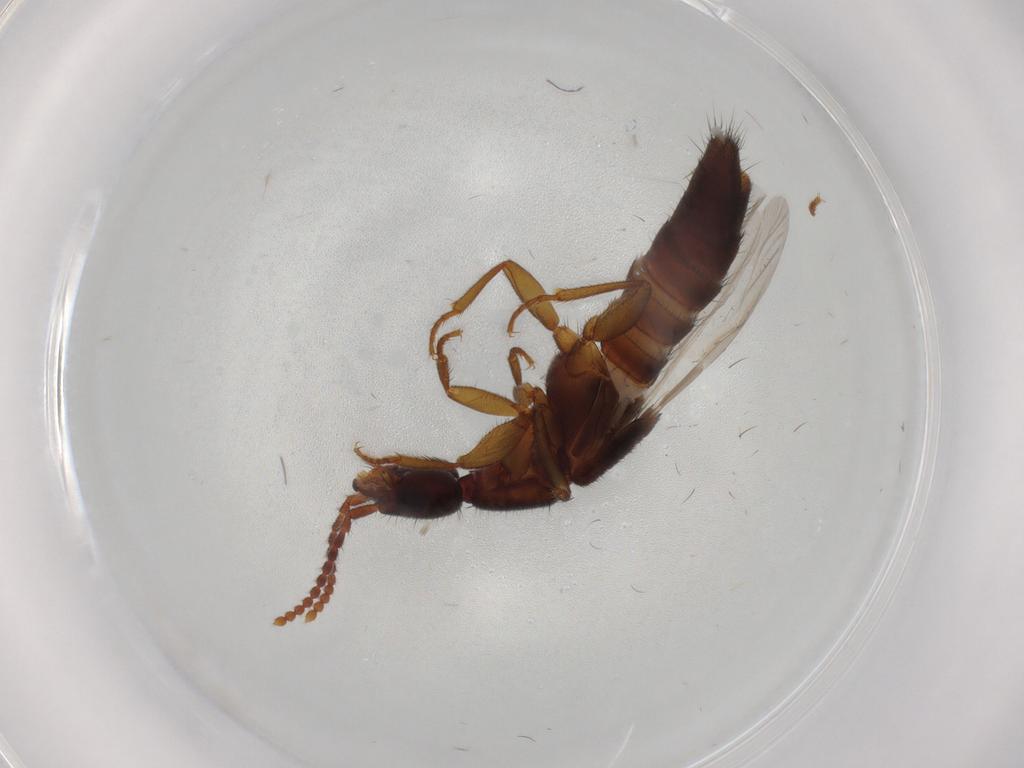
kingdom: Animalia
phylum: Arthropoda
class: Insecta
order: Coleoptera
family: Staphylinidae
